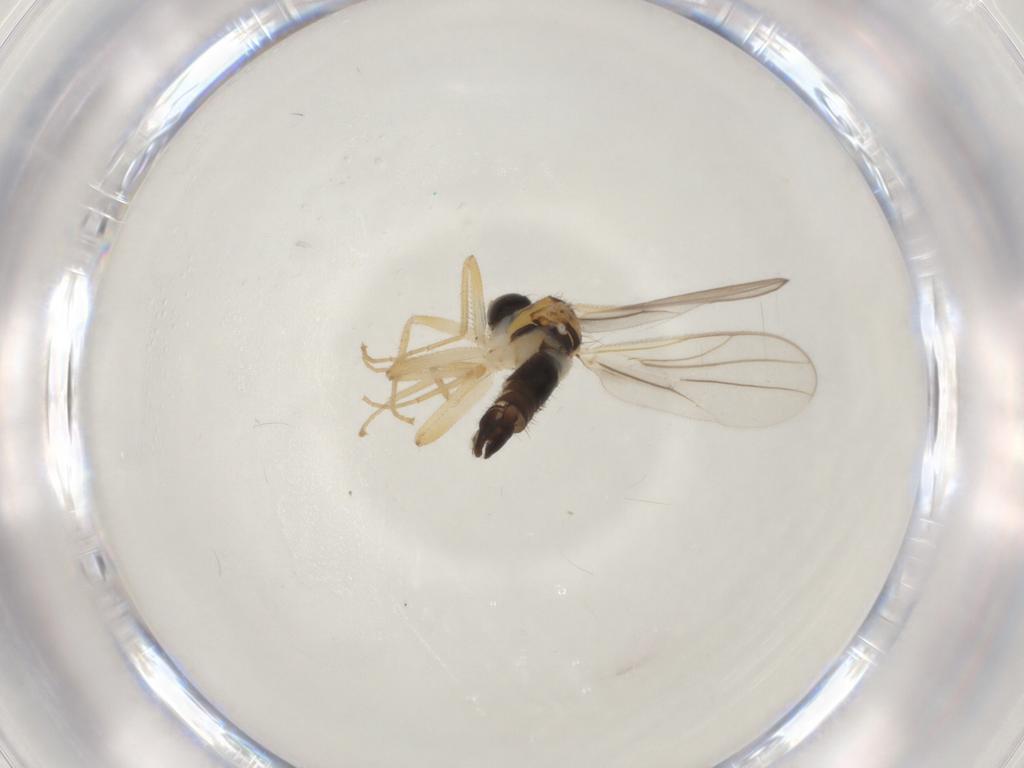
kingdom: Animalia
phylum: Arthropoda
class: Insecta
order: Diptera
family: Hybotidae
